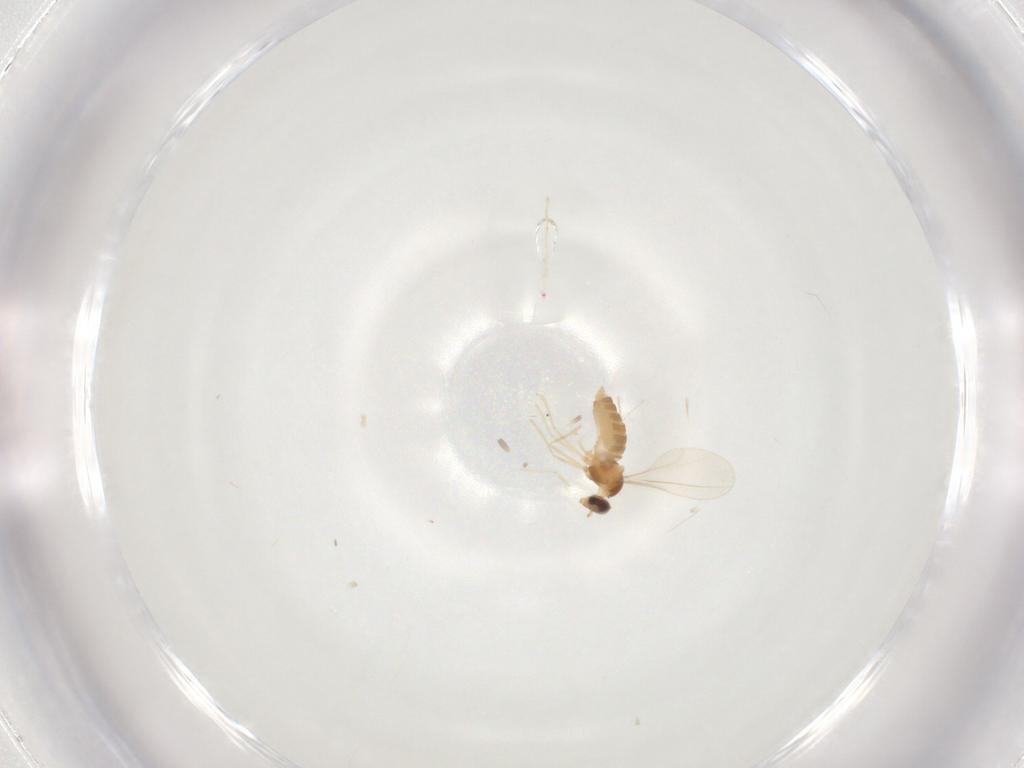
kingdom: Animalia
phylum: Arthropoda
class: Insecta
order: Diptera
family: Cecidomyiidae
